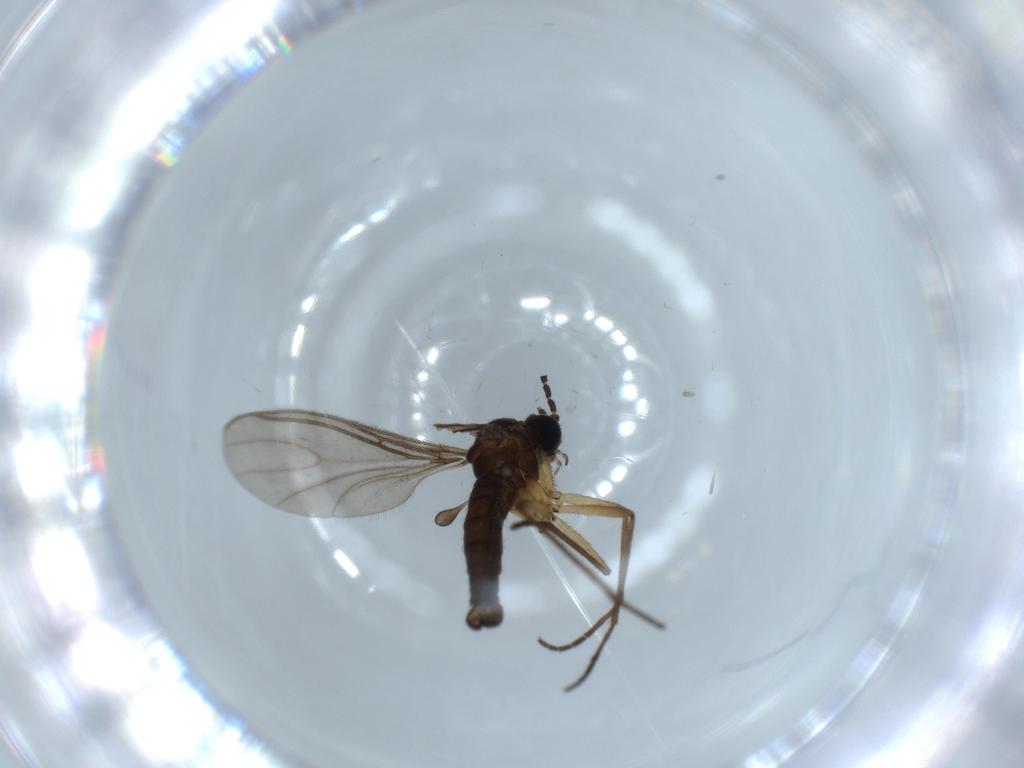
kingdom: Animalia
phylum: Arthropoda
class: Insecta
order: Diptera
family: Sciaridae
